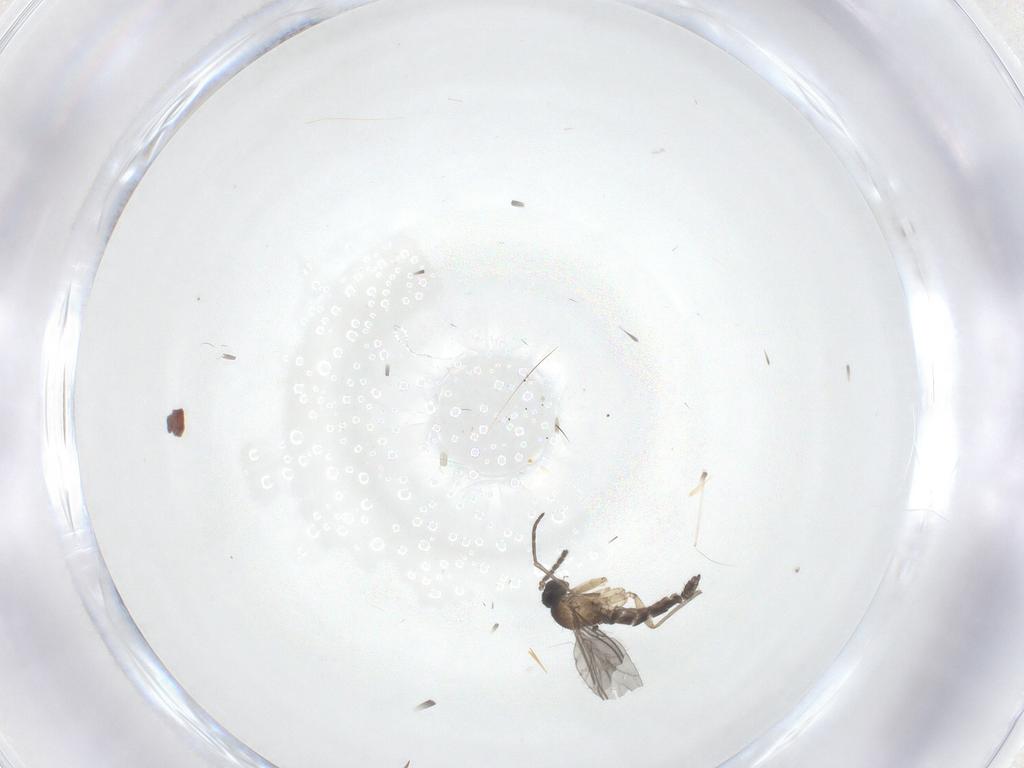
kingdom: Animalia
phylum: Arthropoda
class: Insecta
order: Diptera
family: Sciaridae
